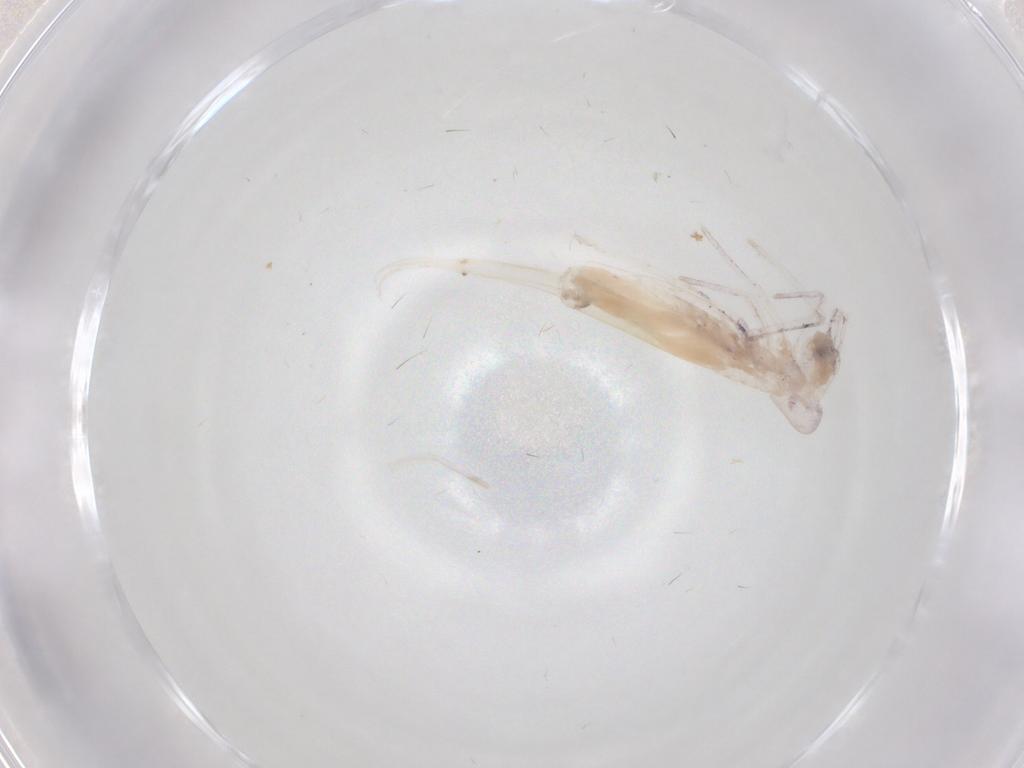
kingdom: Animalia
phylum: Arthropoda
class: Collembola
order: Entomobryomorpha
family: Entomobryidae
